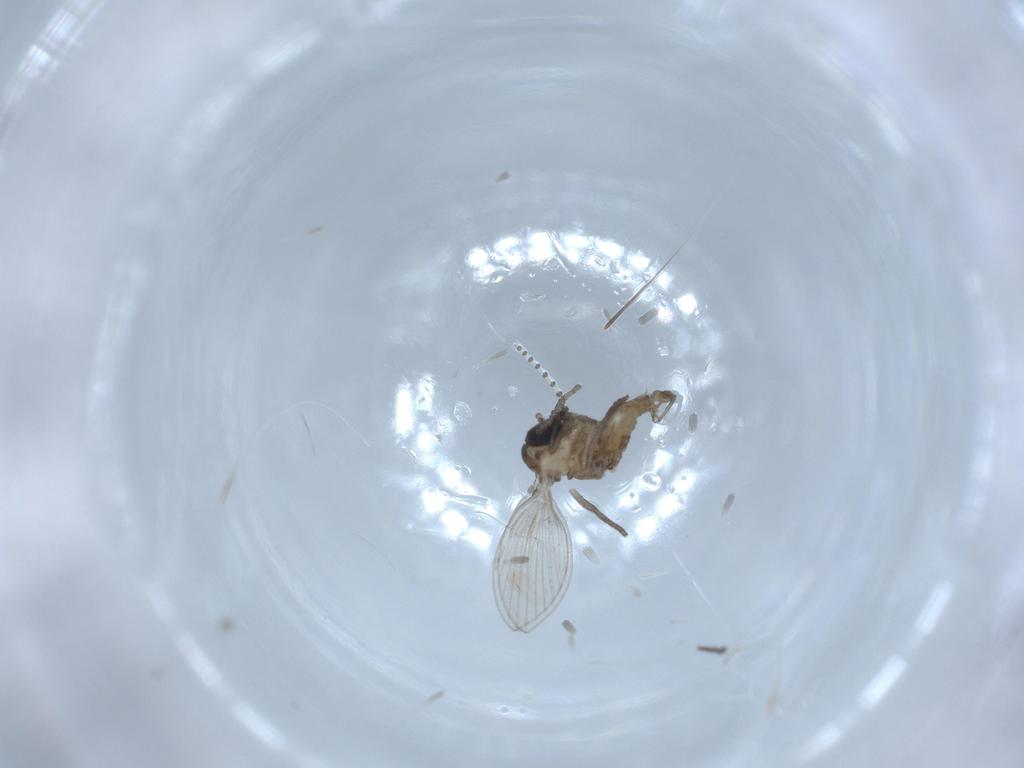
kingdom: Animalia
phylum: Arthropoda
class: Insecta
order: Diptera
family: Psychodidae
